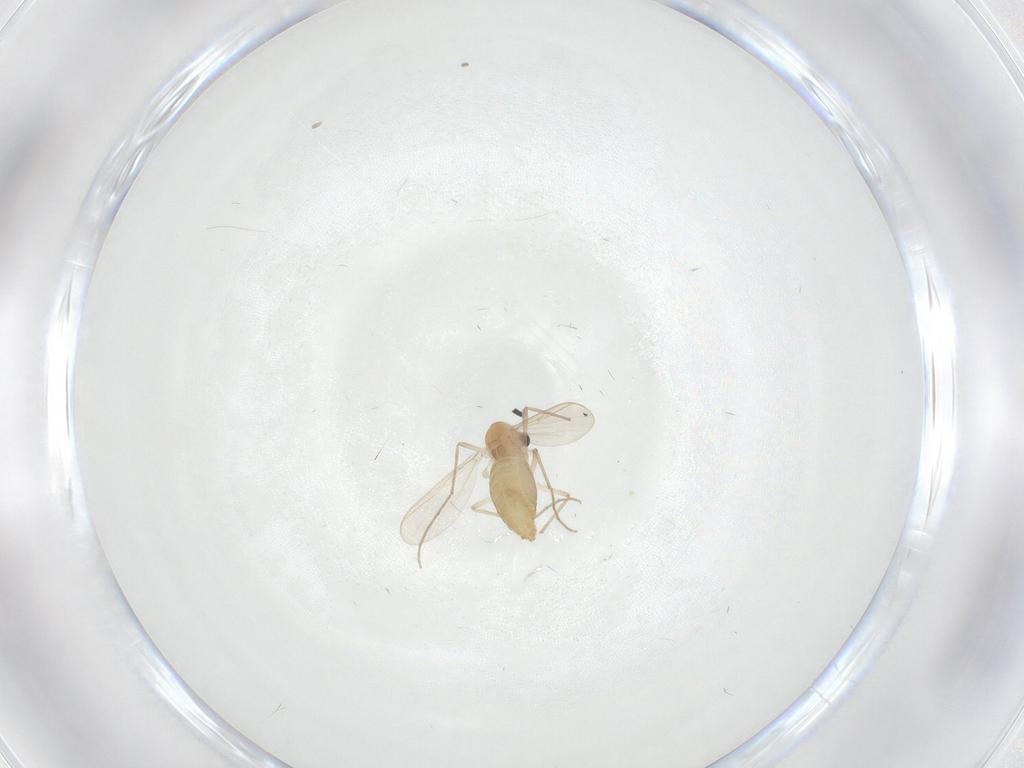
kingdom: Animalia
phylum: Arthropoda
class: Insecta
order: Diptera
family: Chironomidae
